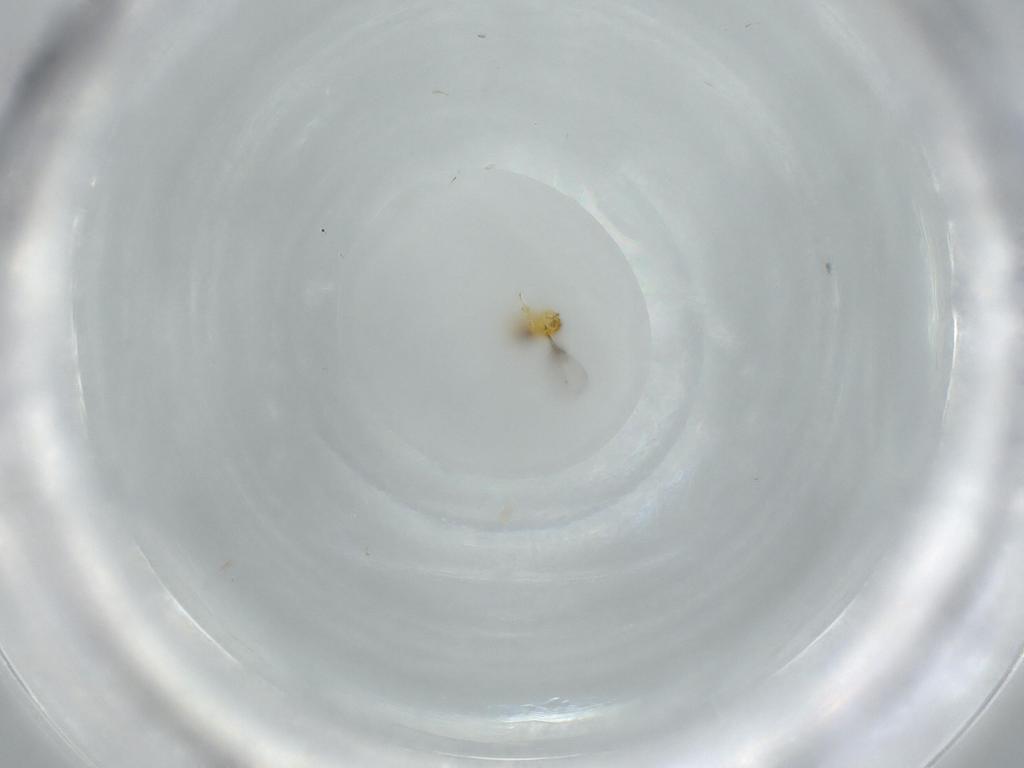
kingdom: Animalia
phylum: Arthropoda
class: Insecta
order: Hymenoptera
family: Trichogrammatidae
